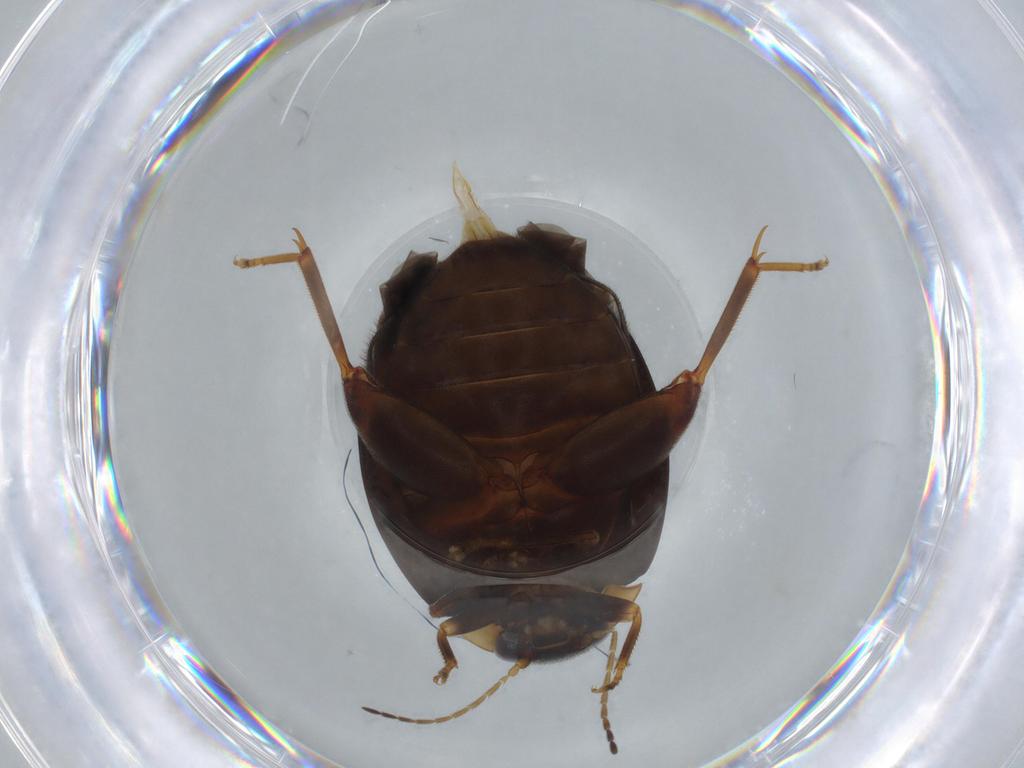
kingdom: Animalia
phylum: Arthropoda
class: Insecta
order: Coleoptera
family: Scirtidae
